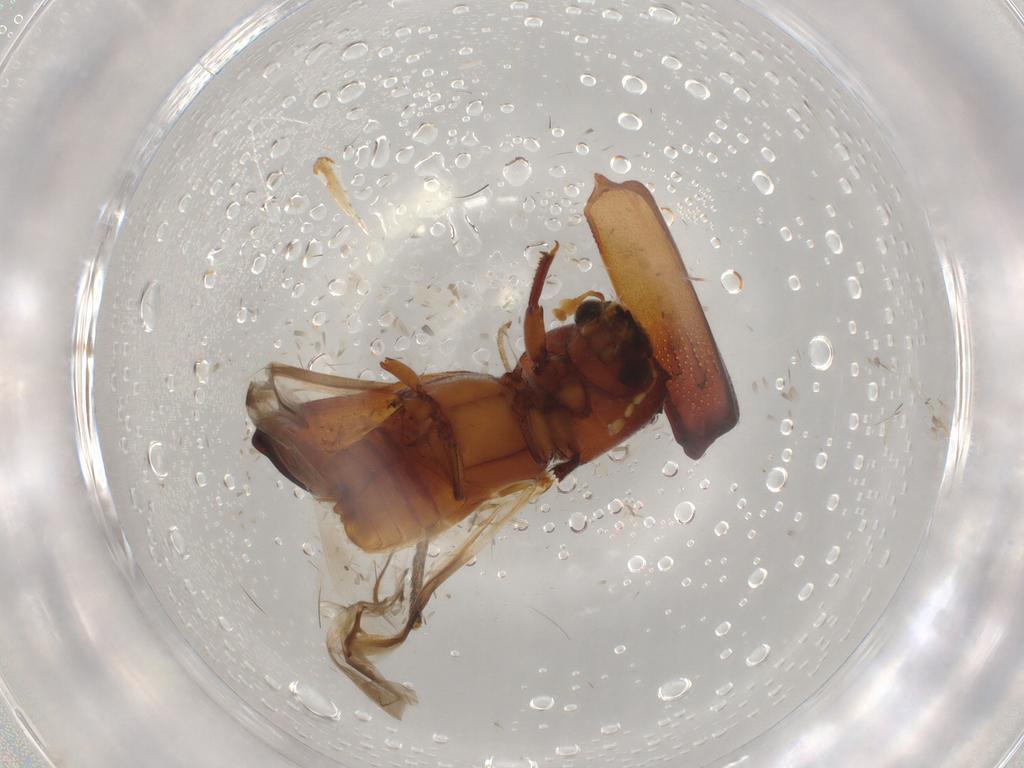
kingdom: Animalia
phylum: Arthropoda
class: Insecta
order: Coleoptera
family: Bostrichidae
